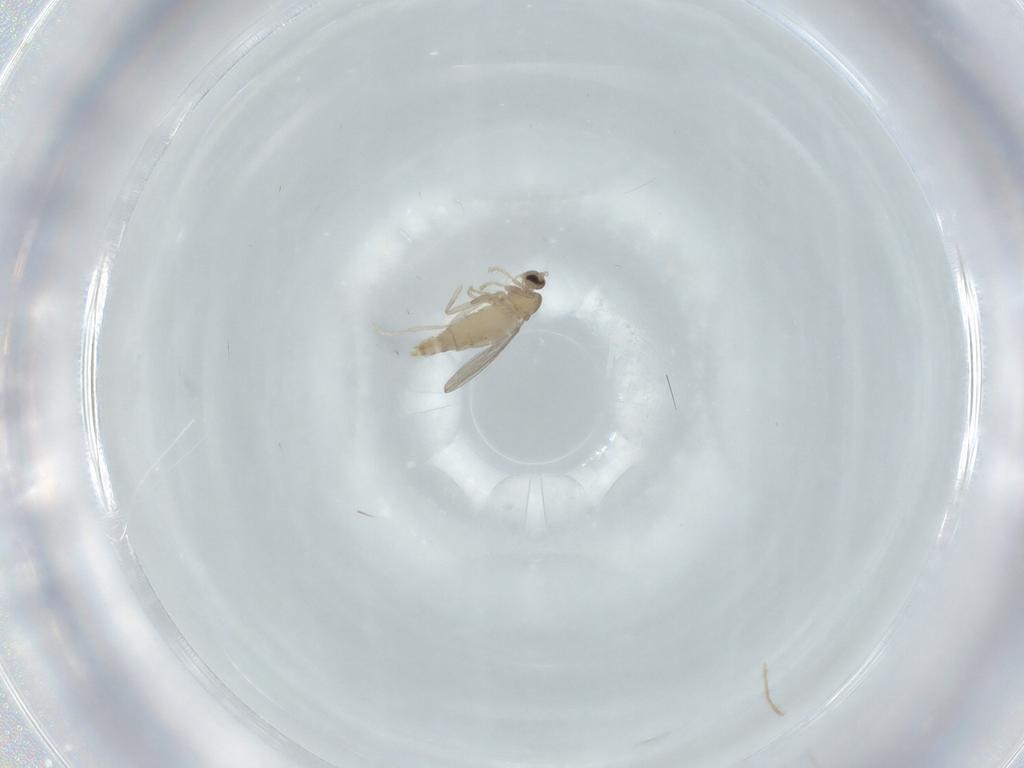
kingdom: Animalia
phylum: Arthropoda
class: Insecta
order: Diptera
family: Cecidomyiidae
